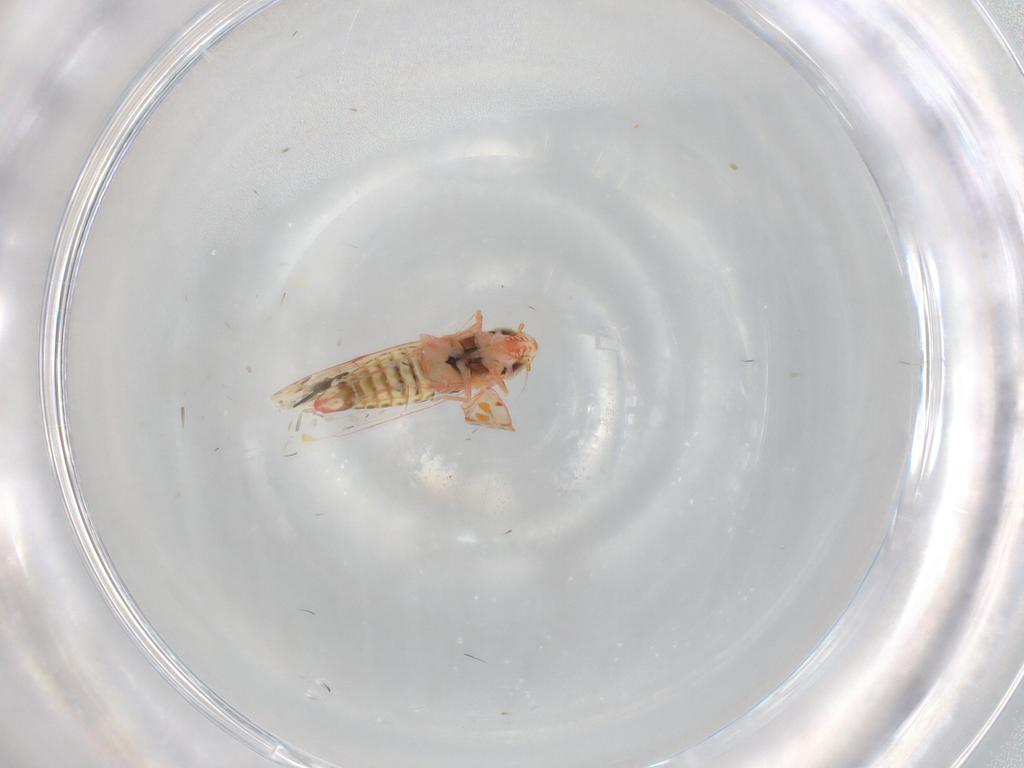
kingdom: Animalia
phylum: Arthropoda
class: Insecta
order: Hemiptera
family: Cicadellidae
